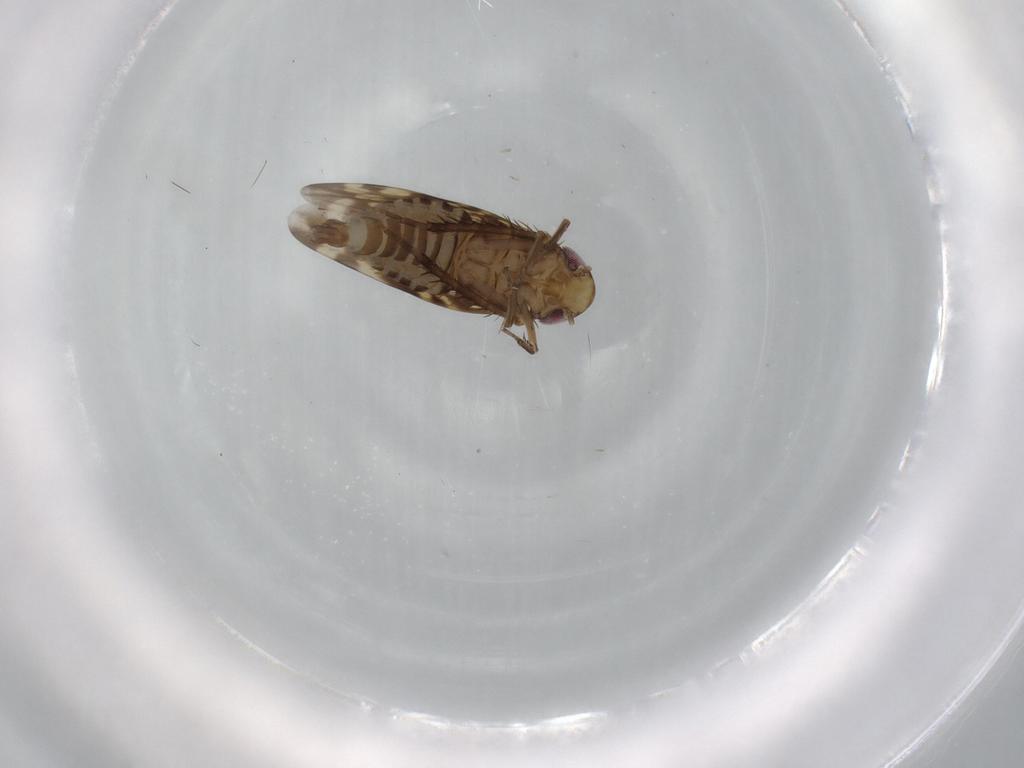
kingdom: Animalia
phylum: Arthropoda
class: Insecta
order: Hemiptera
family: Cicadellidae
